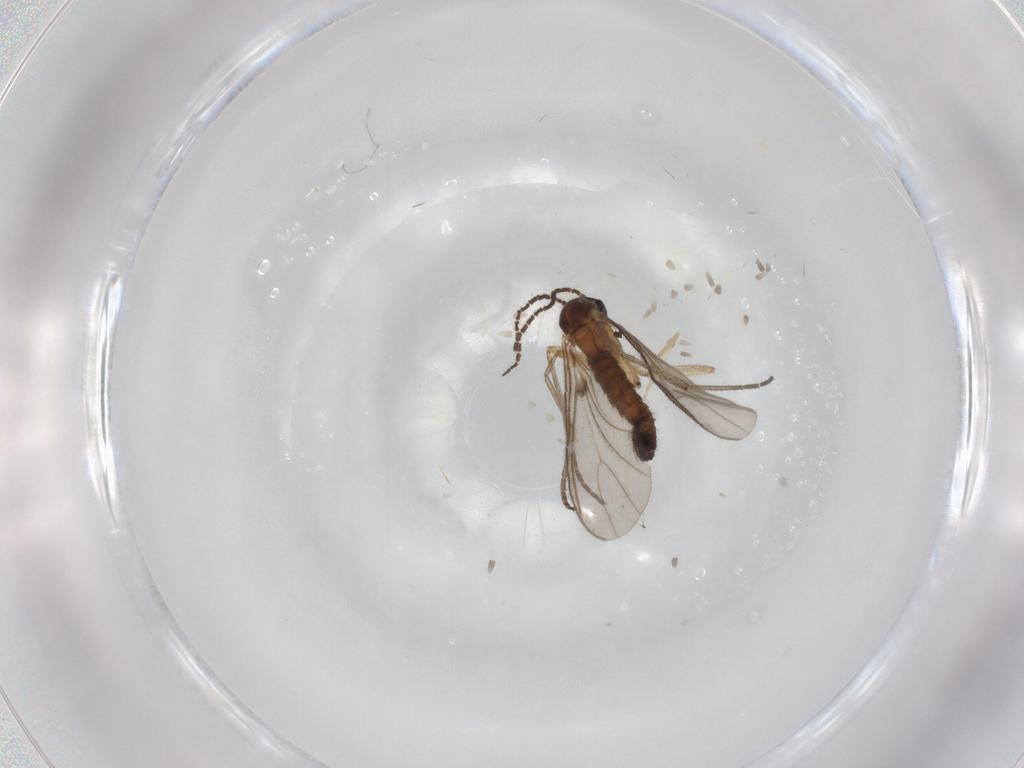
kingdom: Animalia
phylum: Arthropoda
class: Insecta
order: Diptera
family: Sciaridae
